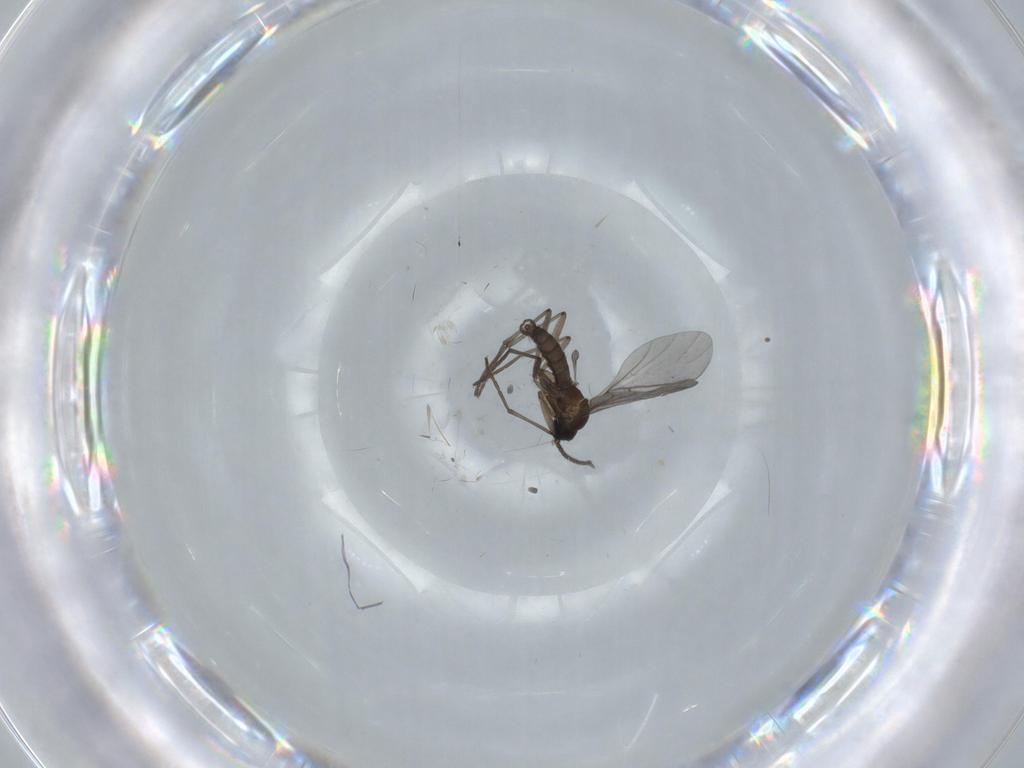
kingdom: Animalia
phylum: Arthropoda
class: Insecta
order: Diptera
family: Sciaridae
